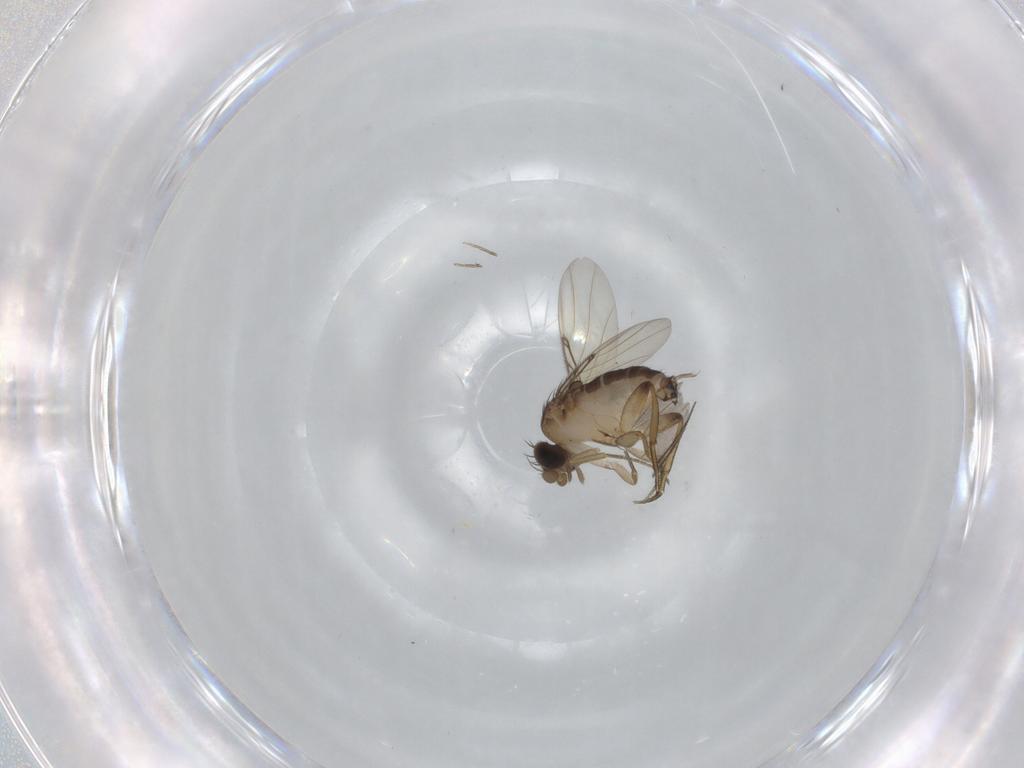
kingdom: Animalia
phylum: Arthropoda
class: Insecta
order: Diptera
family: Phoridae
